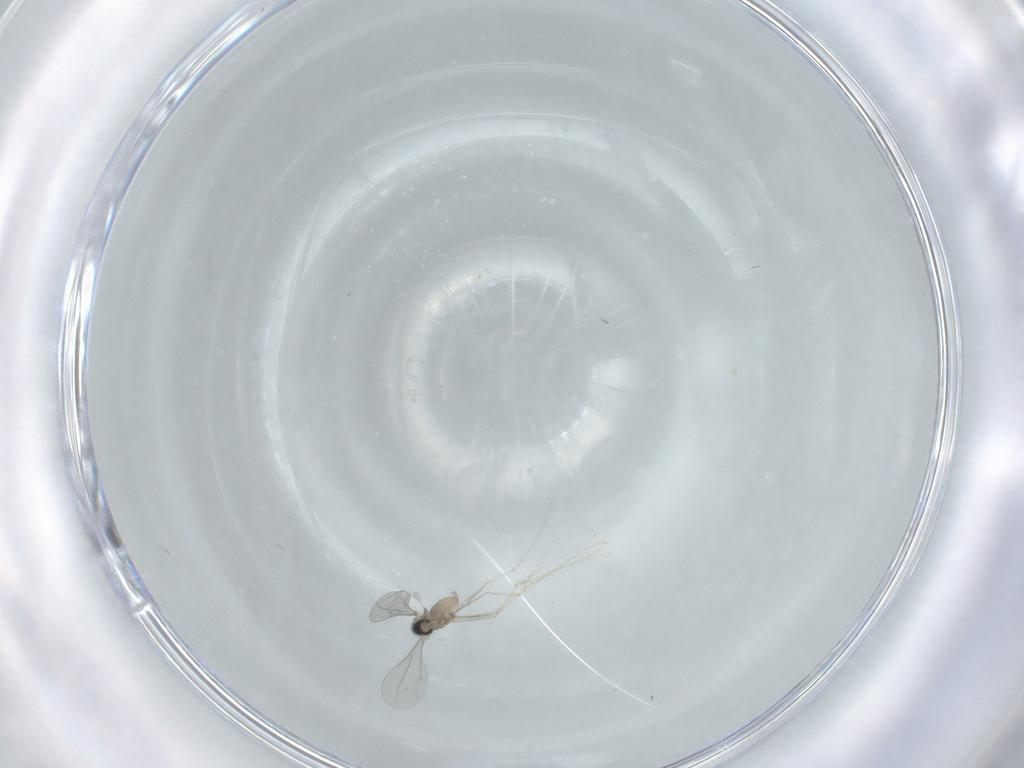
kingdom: Animalia
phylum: Arthropoda
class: Insecta
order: Diptera
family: Cecidomyiidae
